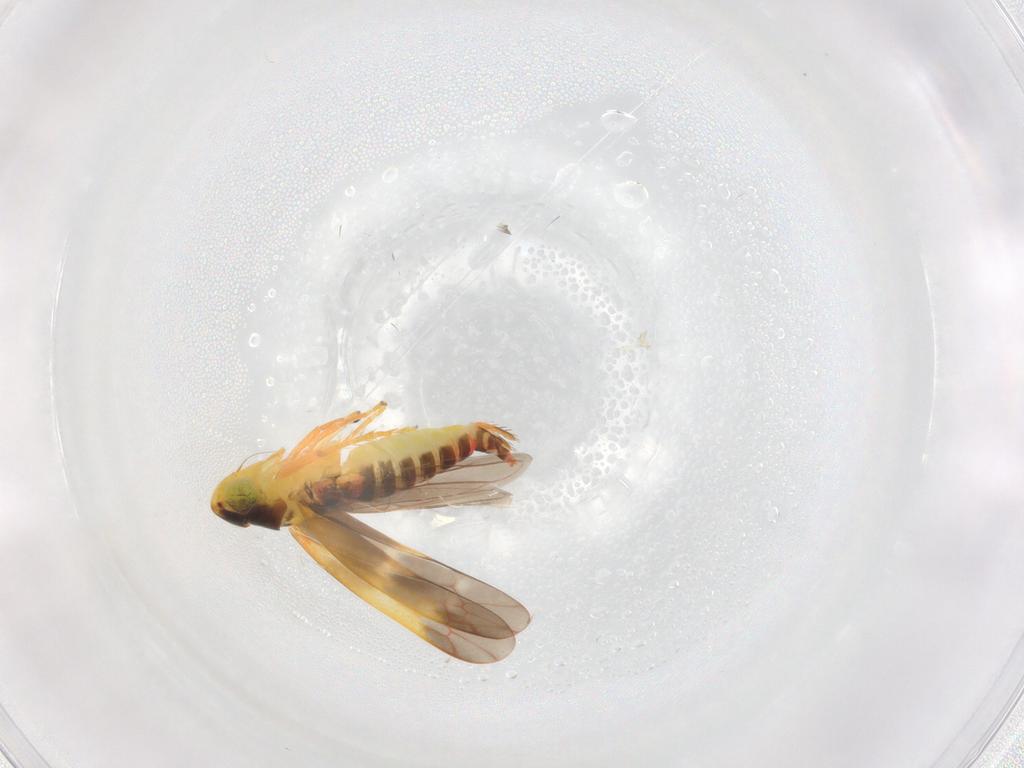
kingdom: Animalia
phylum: Arthropoda
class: Insecta
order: Hemiptera
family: Cicadellidae
